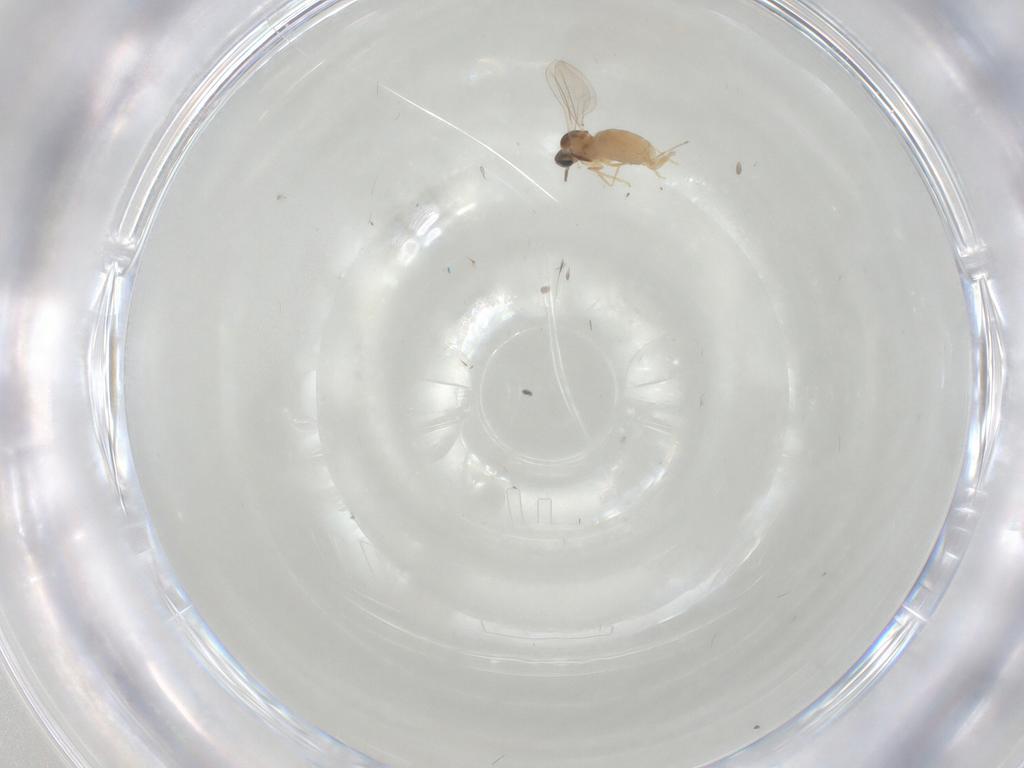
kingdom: Animalia
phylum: Arthropoda
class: Insecta
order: Diptera
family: Cecidomyiidae
